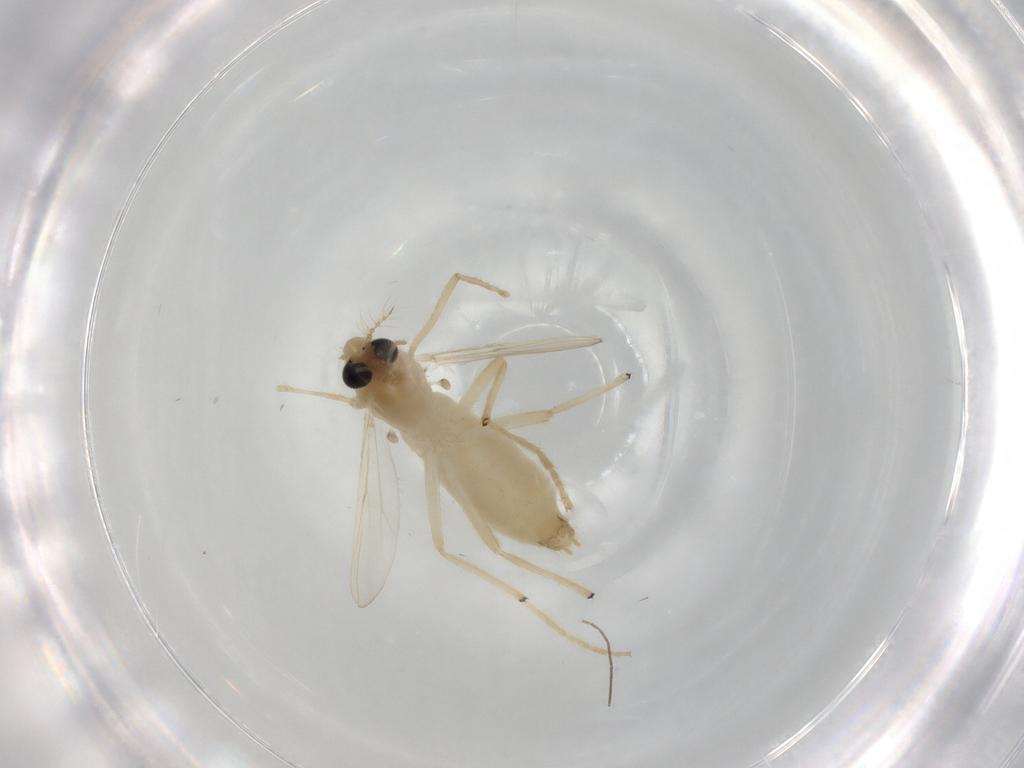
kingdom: Animalia
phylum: Arthropoda
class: Insecta
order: Diptera
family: Chironomidae
